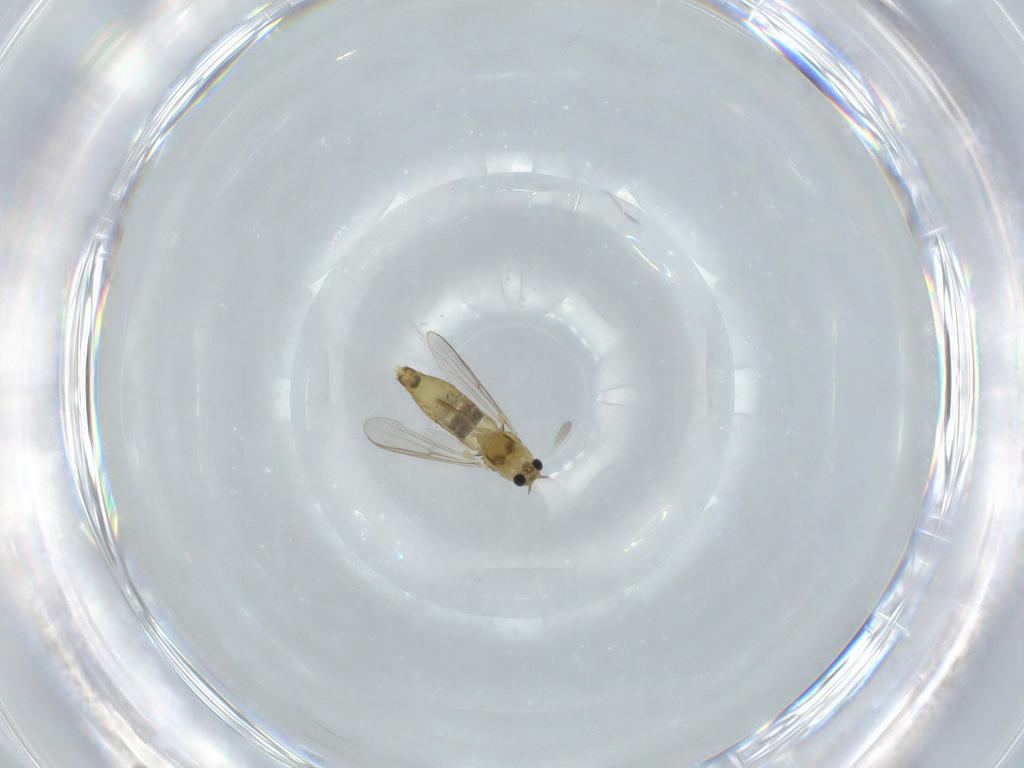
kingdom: Animalia
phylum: Arthropoda
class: Insecta
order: Diptera
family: Chironomidae
